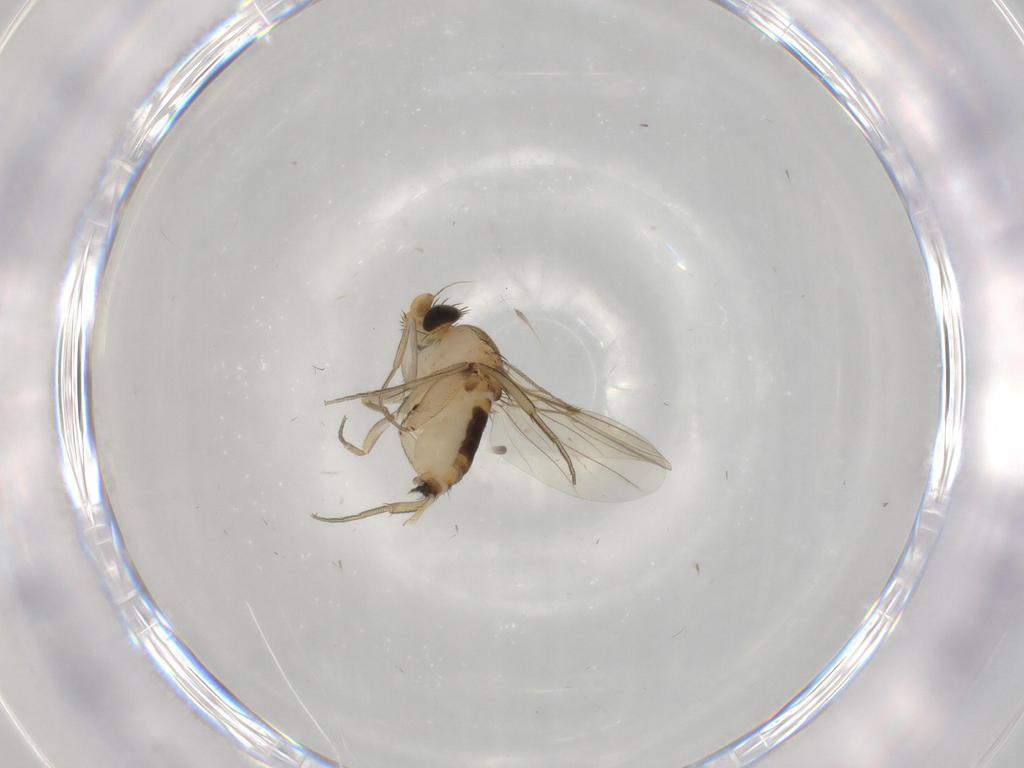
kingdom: Animalia
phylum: Arthropoda
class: Insecta
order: Diptera
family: Phoridae
